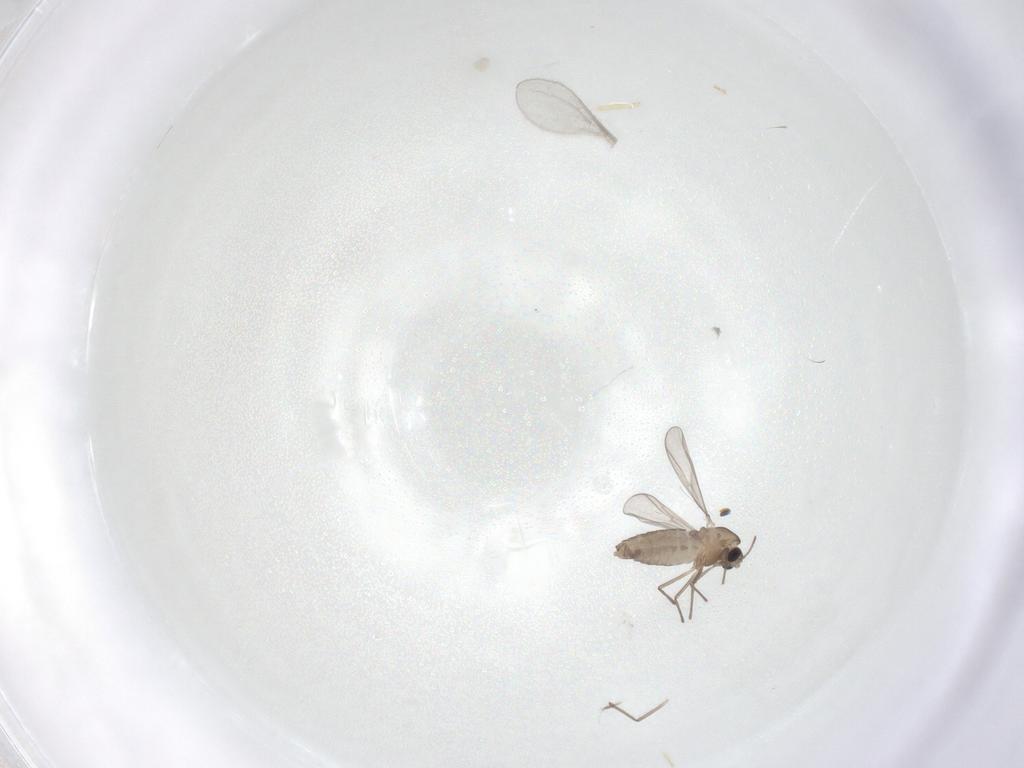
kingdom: Animalia
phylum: Arthropoda
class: Insecta
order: Diptera
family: Chironomidae
